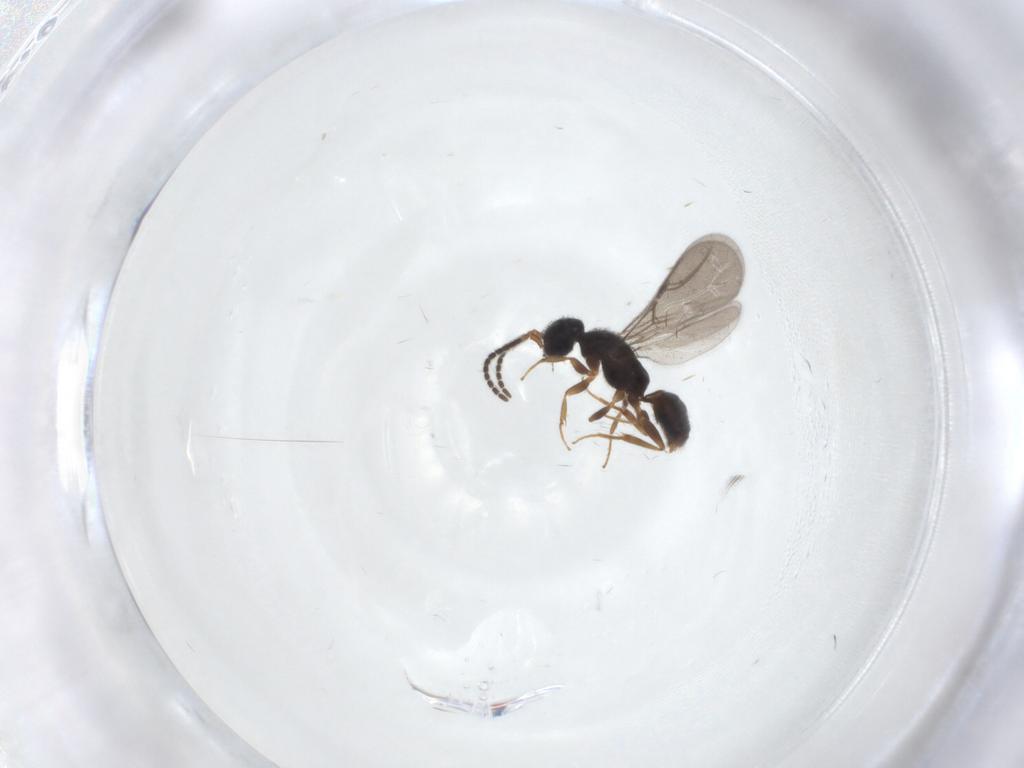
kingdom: Animalia
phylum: Arthropoda
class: Insecta
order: Hymenoptera
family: Bethylidae
